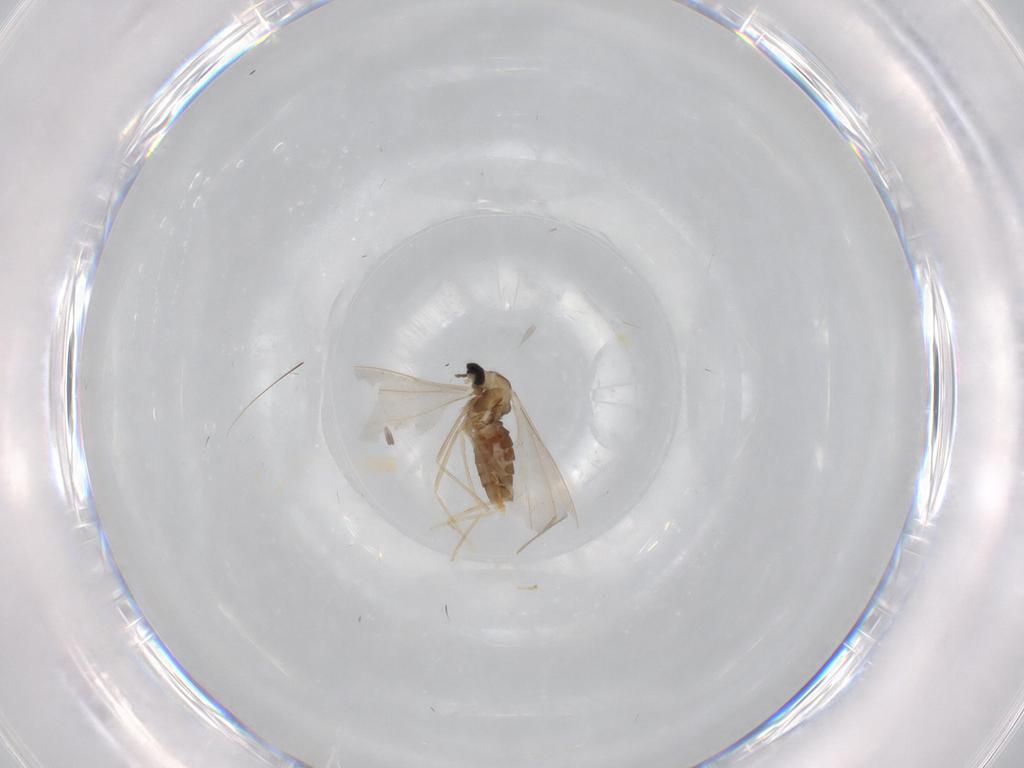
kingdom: Animalia
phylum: Arthropoda
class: Insecta
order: Diptera
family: Cecidomyiidae
